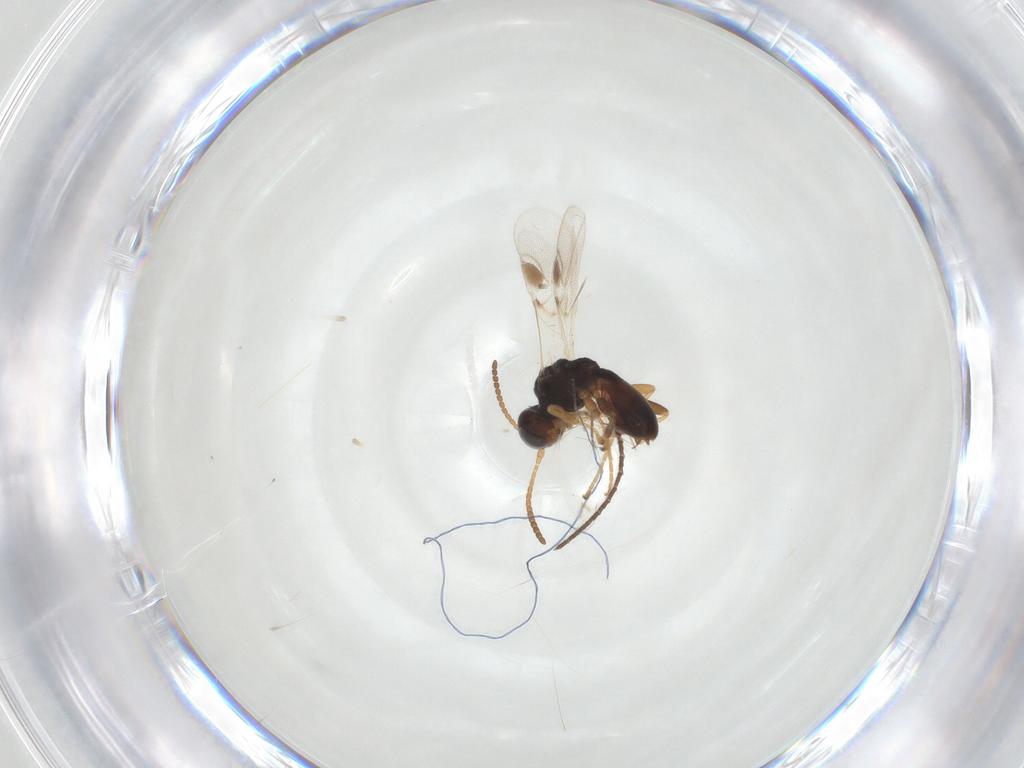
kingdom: Animalia
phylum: Arthropoda
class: Insecta
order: Hymenoptera
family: Braconidae
